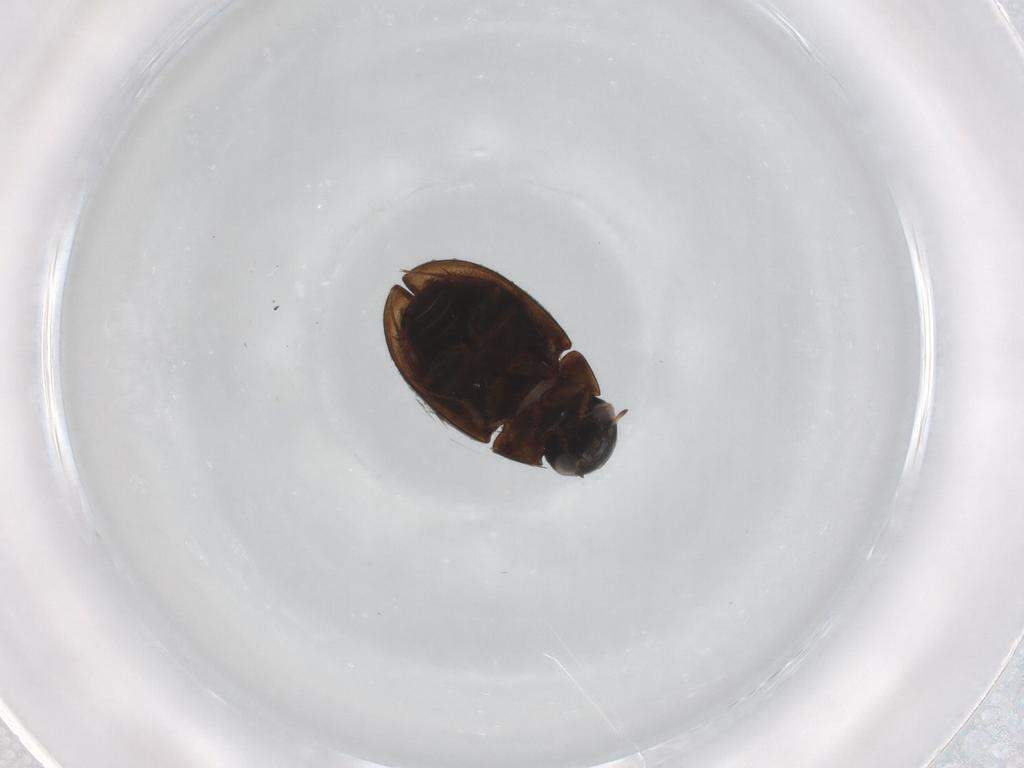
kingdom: Animalia
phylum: Arthropoda
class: Insecta
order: Coleoptera
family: Hydrophilidae
